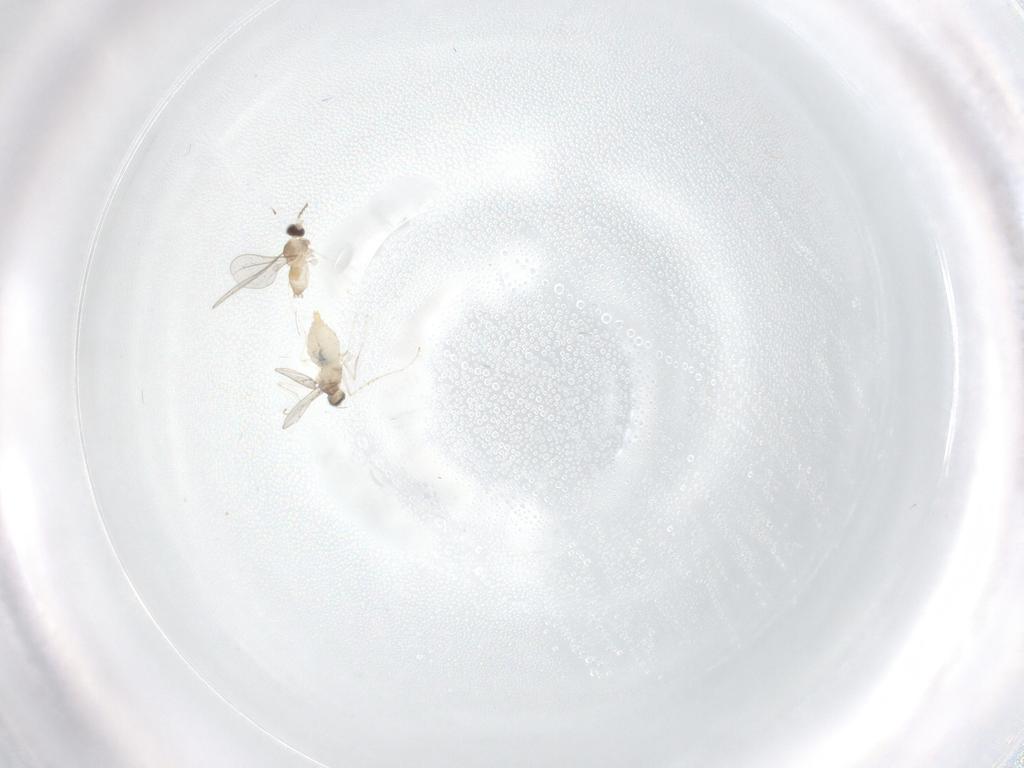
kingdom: Animalia
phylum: Arthropoda
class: Insecta
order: Diptera
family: Cecidomyiidae
